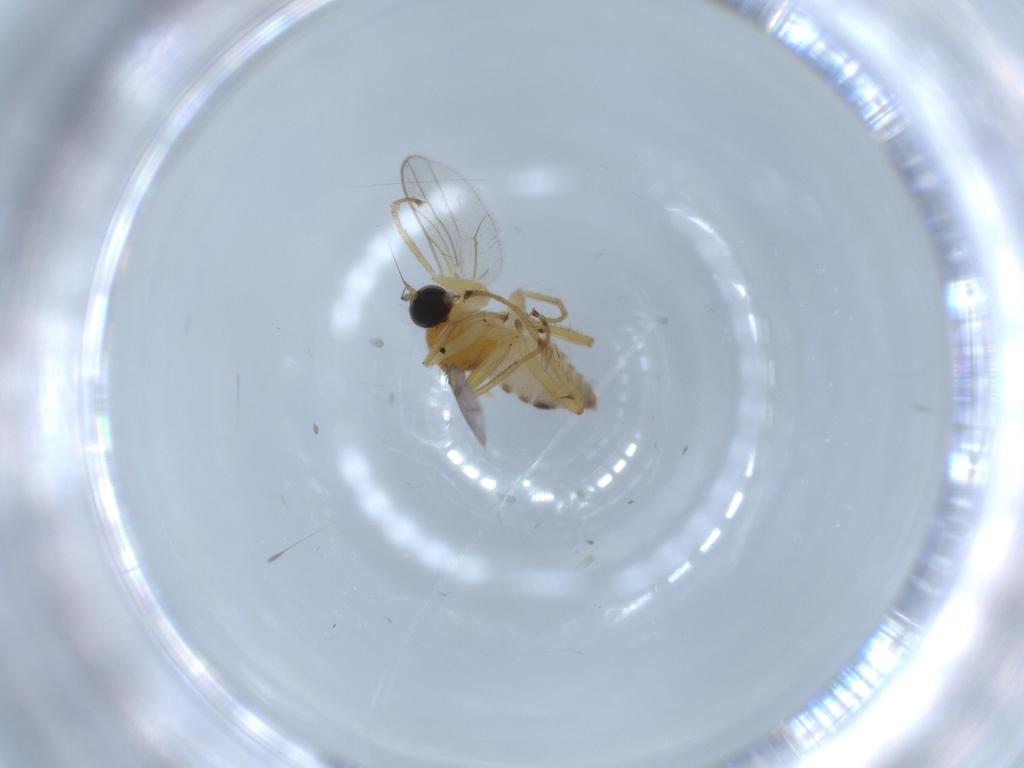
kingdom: Animalia
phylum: Arthropoda
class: Insecta
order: Diptera
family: Hybotidae
